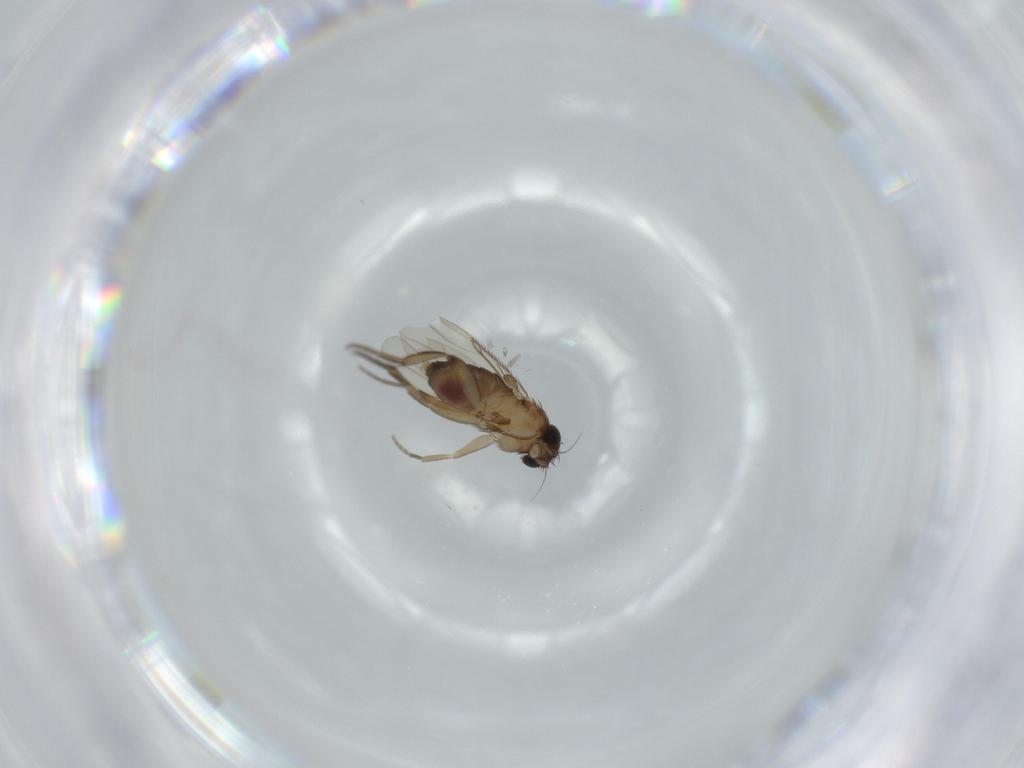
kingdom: Animalia
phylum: Arthropoda
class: Insecta
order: Diptera
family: Phoridae
